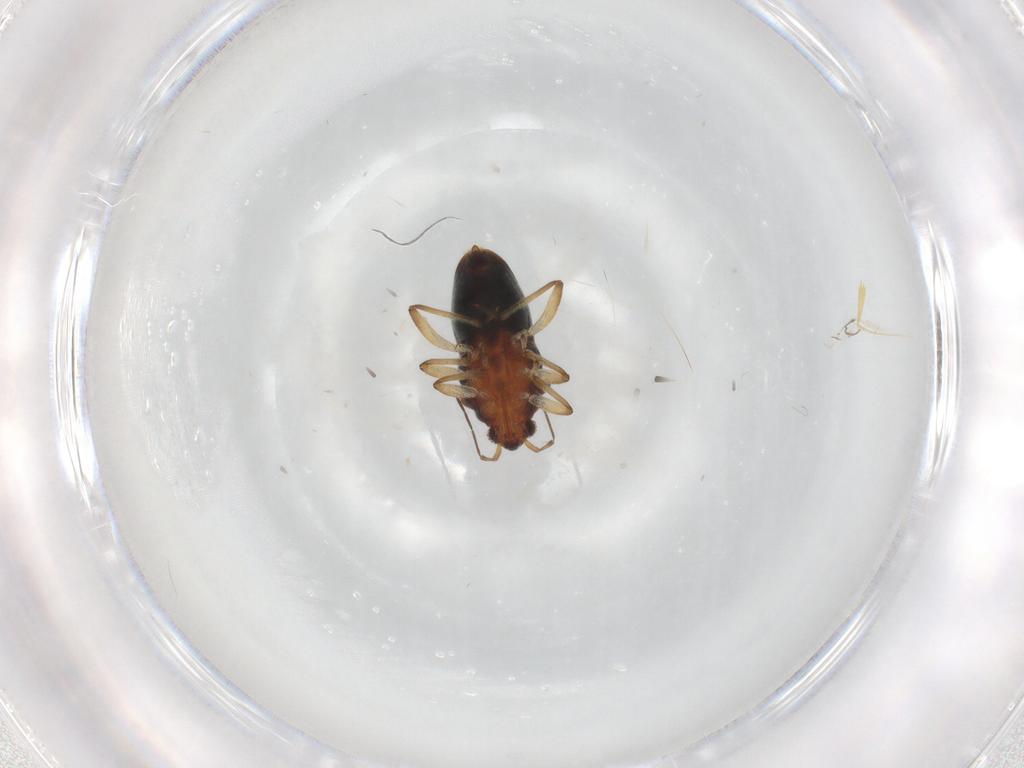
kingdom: Animalia
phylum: Arthropoda
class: Insecta
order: Hemiptera
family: Hebridae
